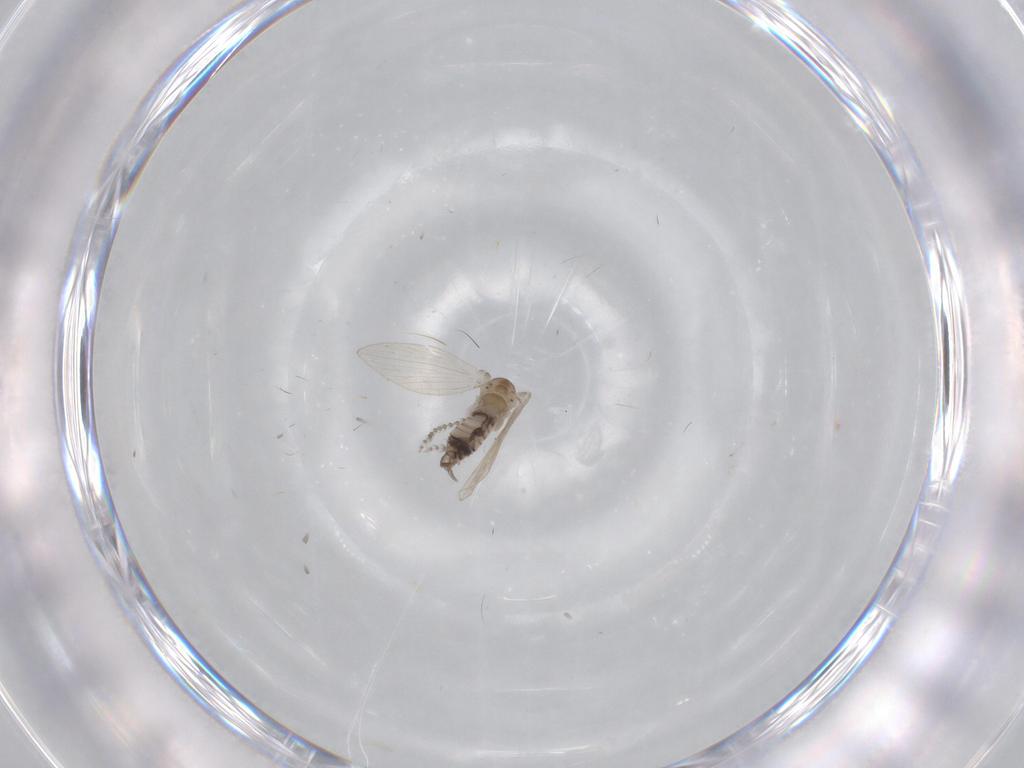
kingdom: Animalia
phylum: Arthropoda
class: Insecta
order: Diptera
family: Psychodidae
